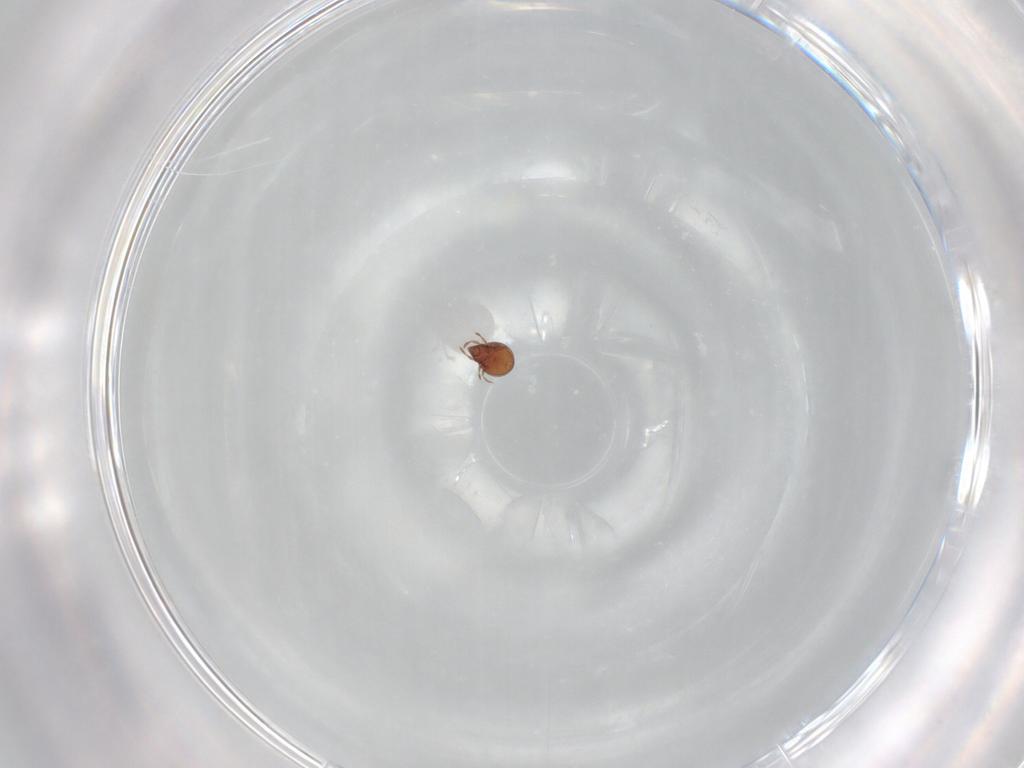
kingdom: Animalia
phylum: Arthropoda
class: Arachnida
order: Sarcoptiformes
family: Oribatulidae
